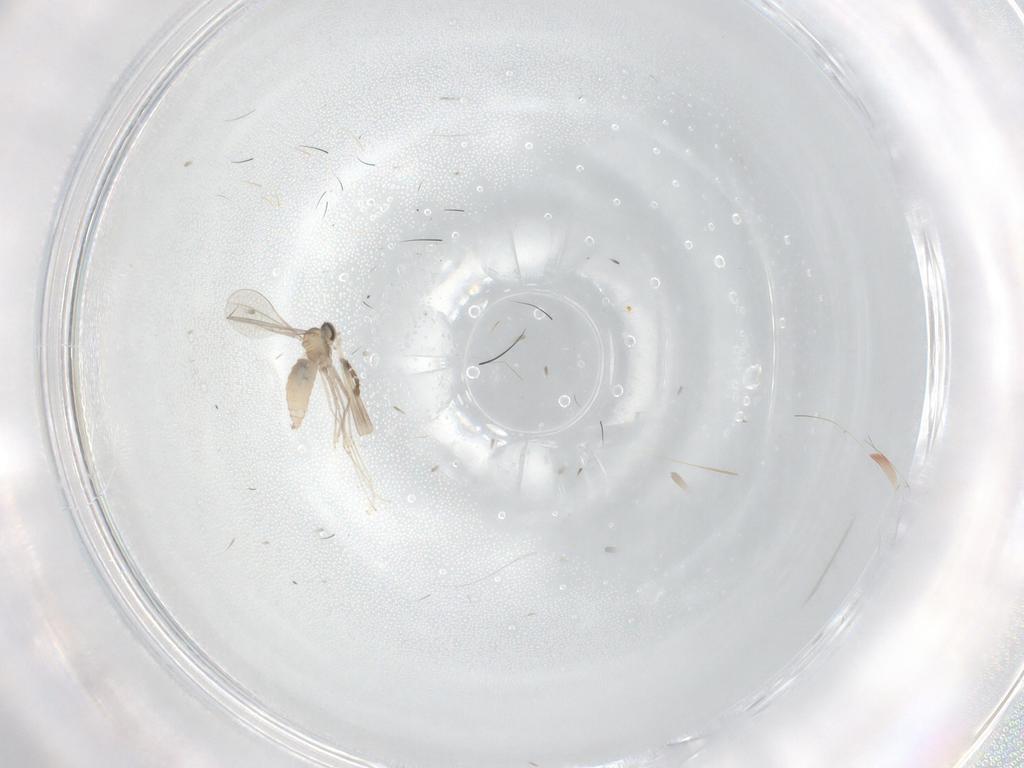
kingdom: Animalia
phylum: Arthropoda
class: Insecta
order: Diptera
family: Cecidomyiidae
